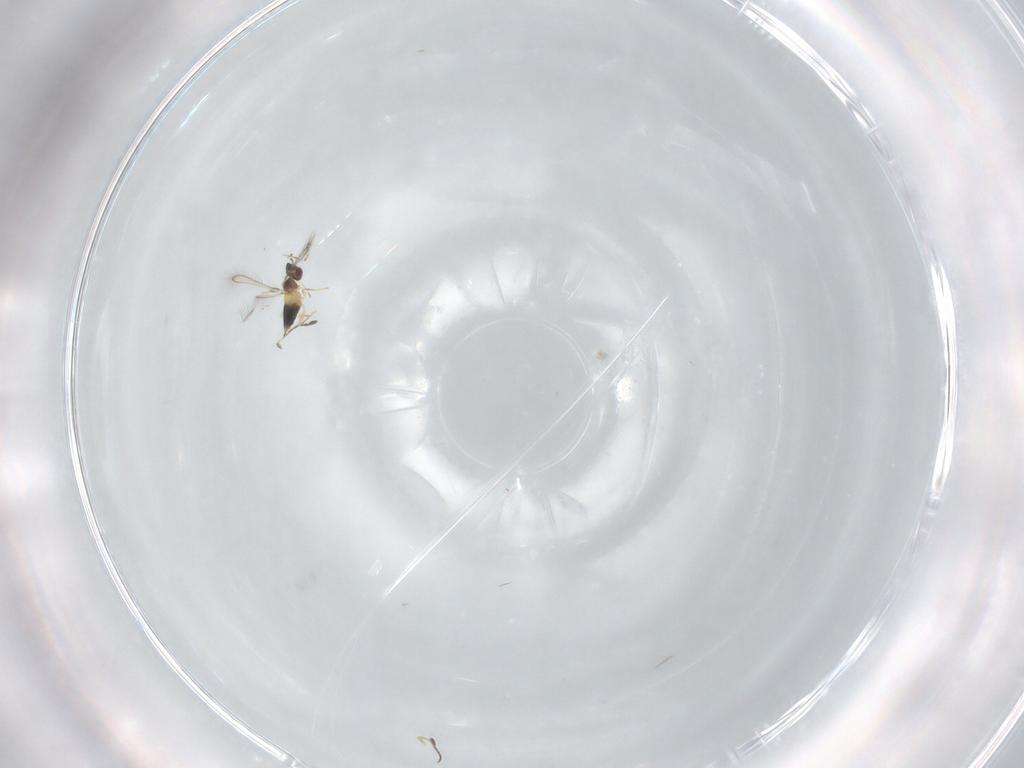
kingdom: Animalia
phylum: Arthropoda
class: Insecta
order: Hymenoptera
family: Mymaridae
